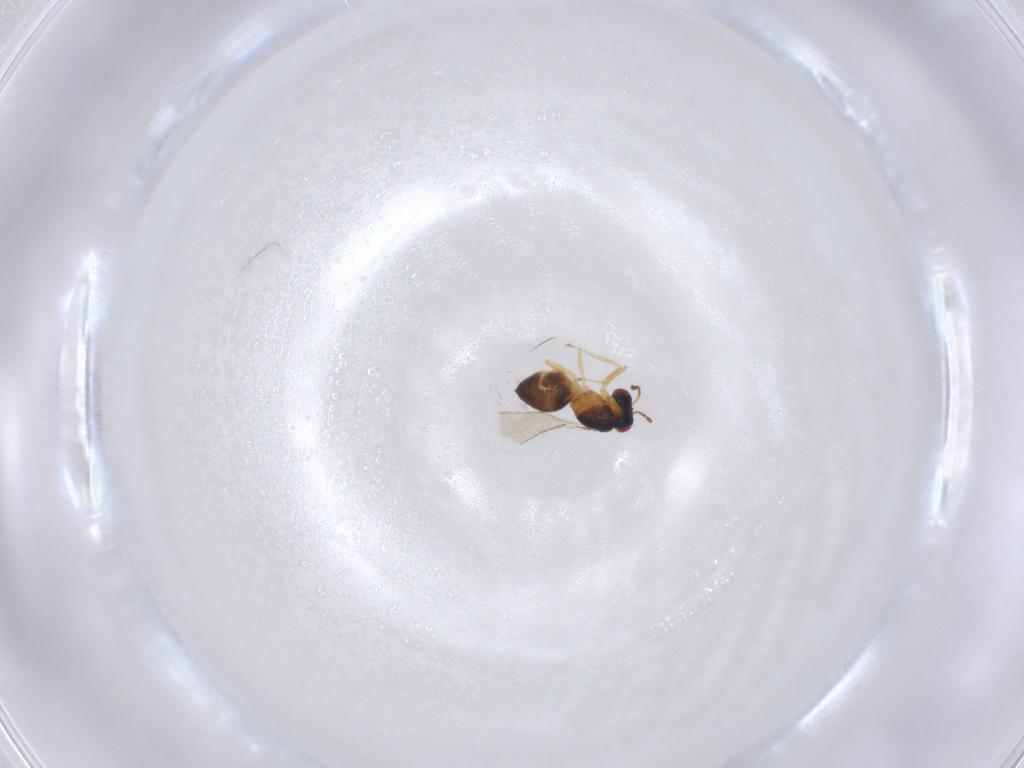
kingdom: Animalia
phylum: Arthropoda
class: Insecta
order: Hymenoptera
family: Eulophidae
